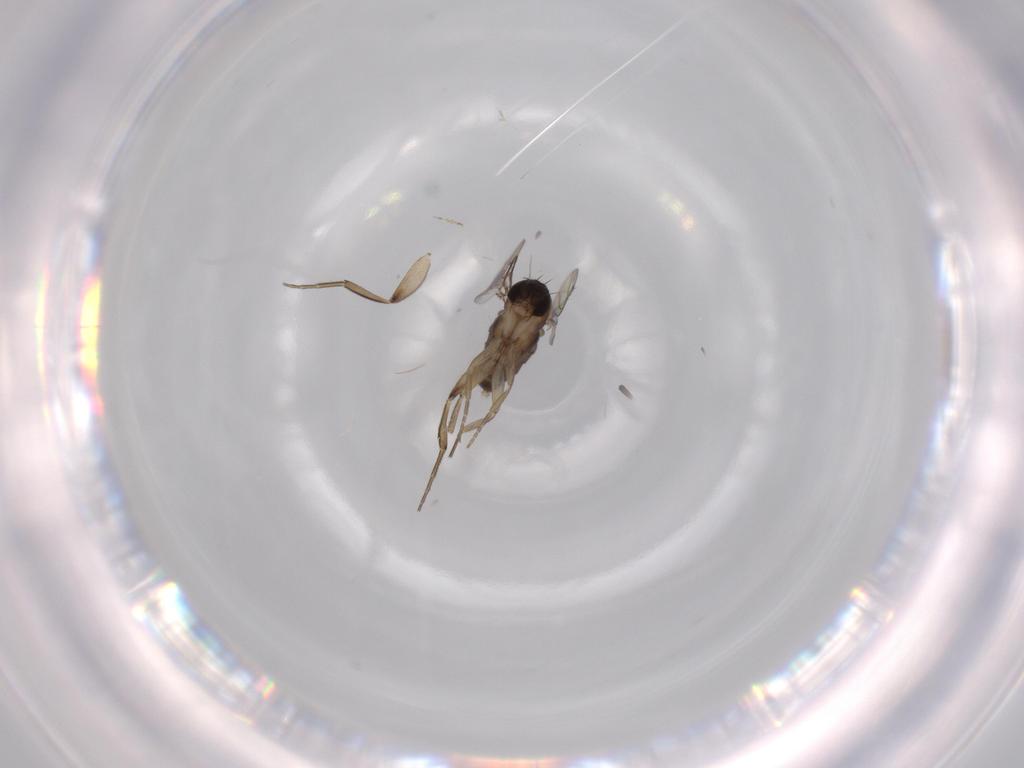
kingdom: Animalia
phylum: Arthropoda
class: Insecta
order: Diptera
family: Phoridae
